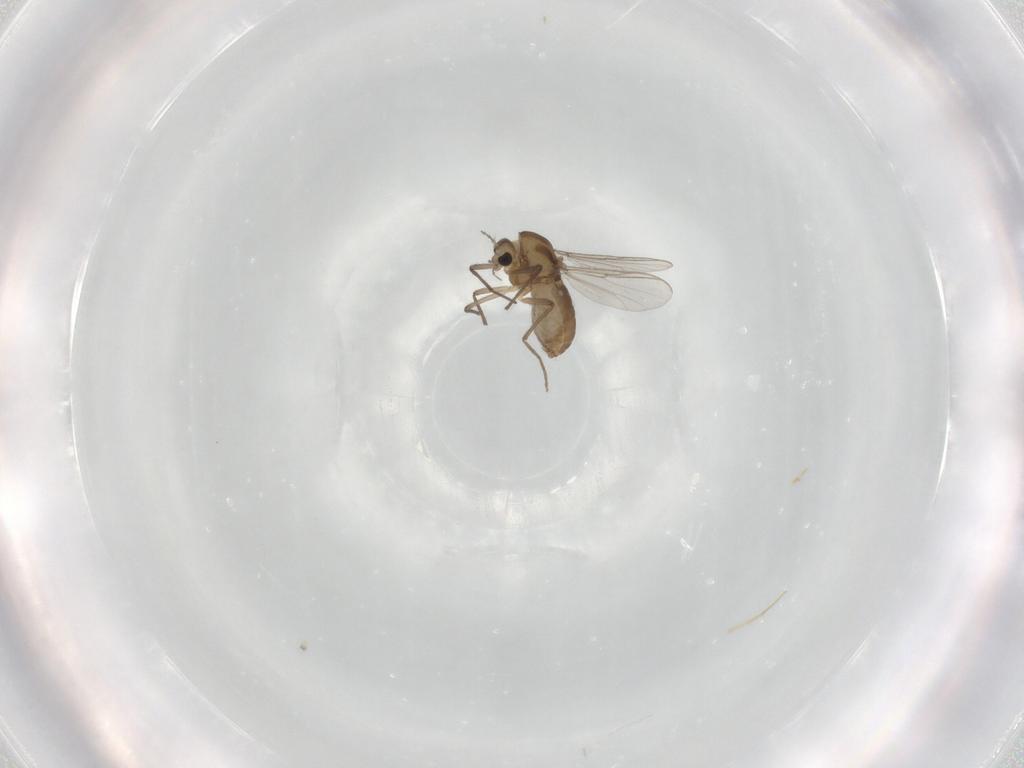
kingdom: Animalia
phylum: Arthropoda
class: Insecta
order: Diptera
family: Chironomidae
